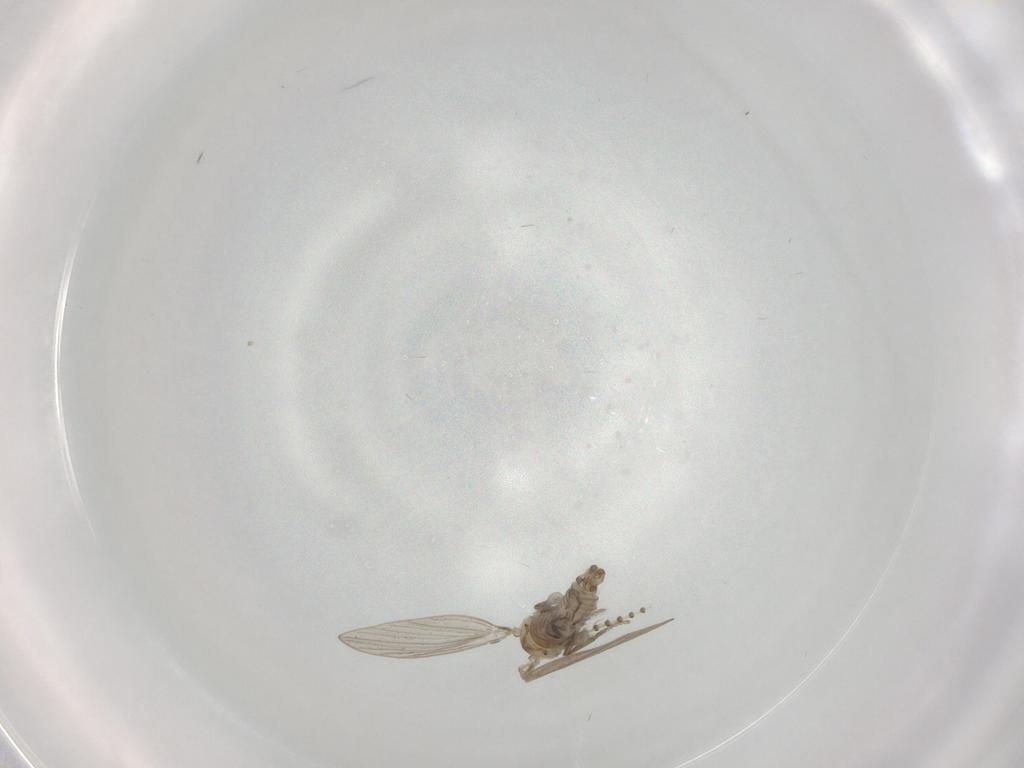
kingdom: Animalia
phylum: Arthropoda
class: Insecta
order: Diptera
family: Psychodidae
